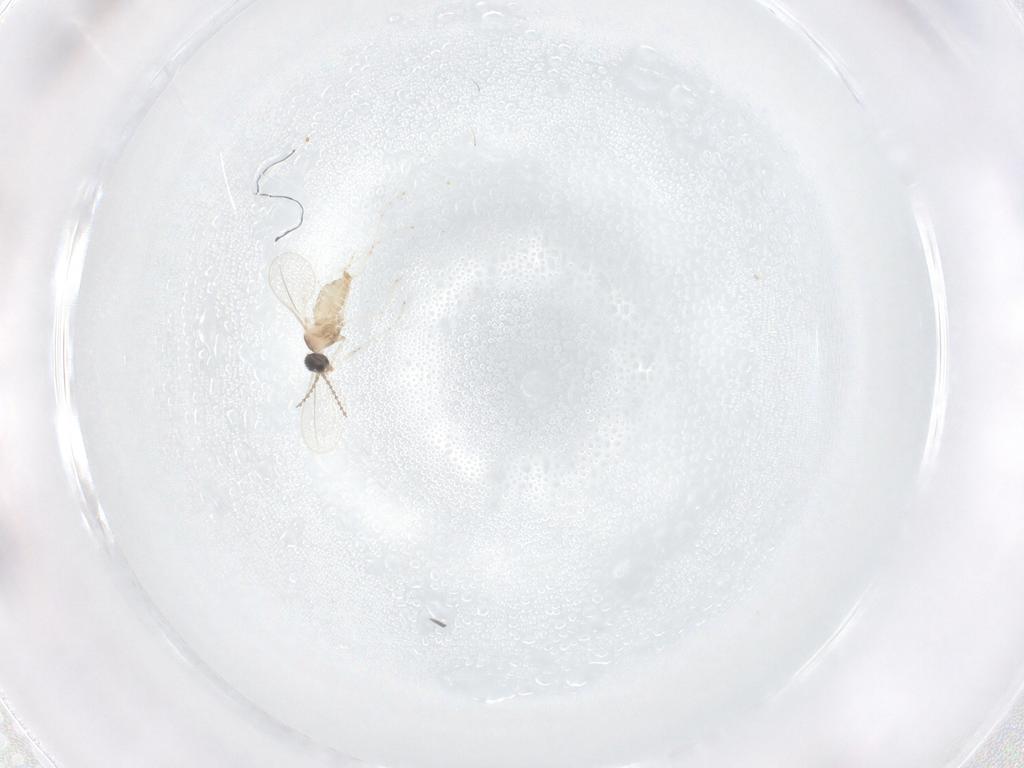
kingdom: Animalia
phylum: Arthropoda
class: Insecta
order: Diptera
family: Cecidomyiidae
